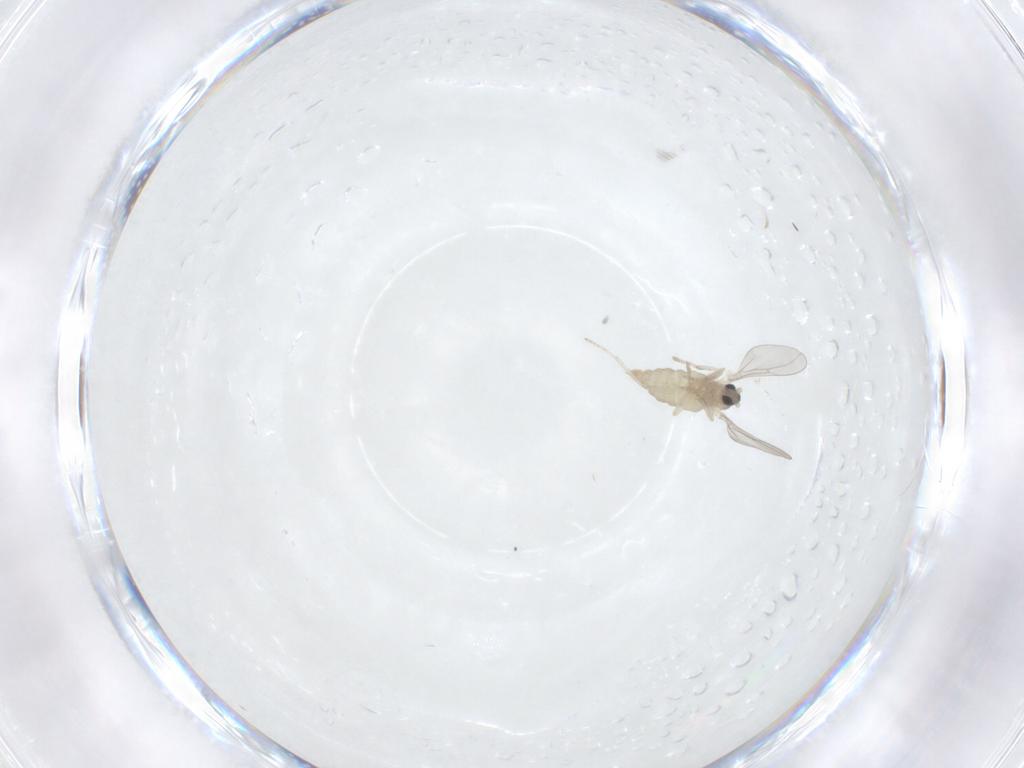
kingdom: Animalia
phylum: Arthropoda
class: Insecta
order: Diptera
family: Cecidomyiidae
